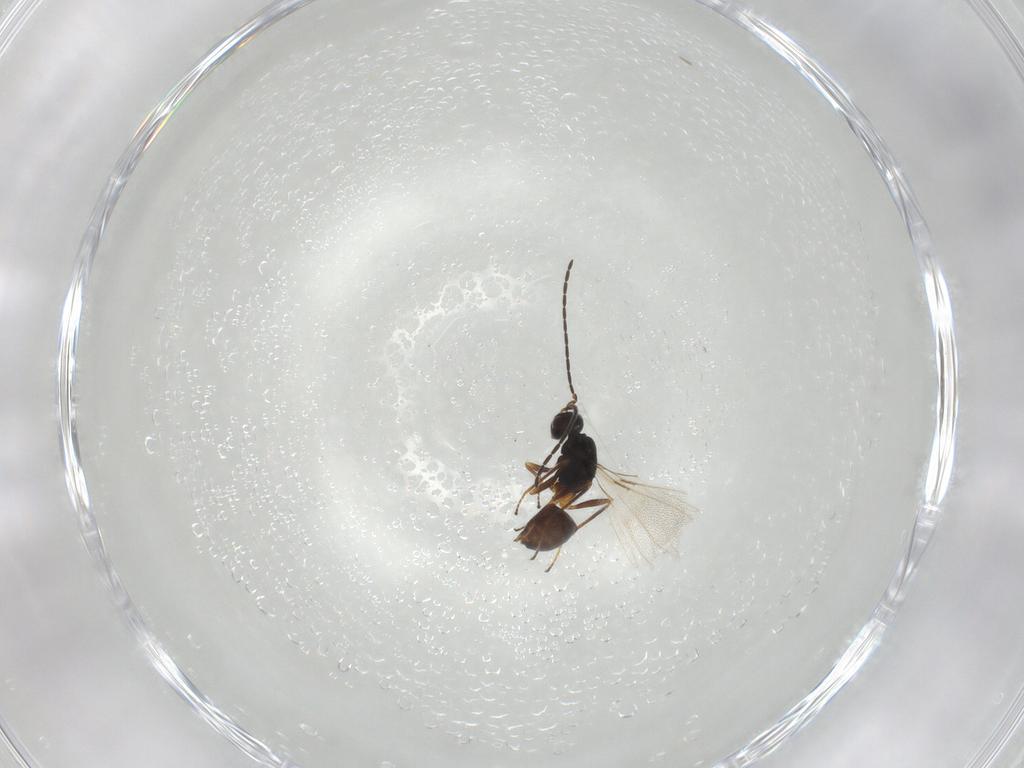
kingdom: Animalia
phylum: Arthropoda
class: Insecta
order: Hymenoptera
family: Mymaridae
